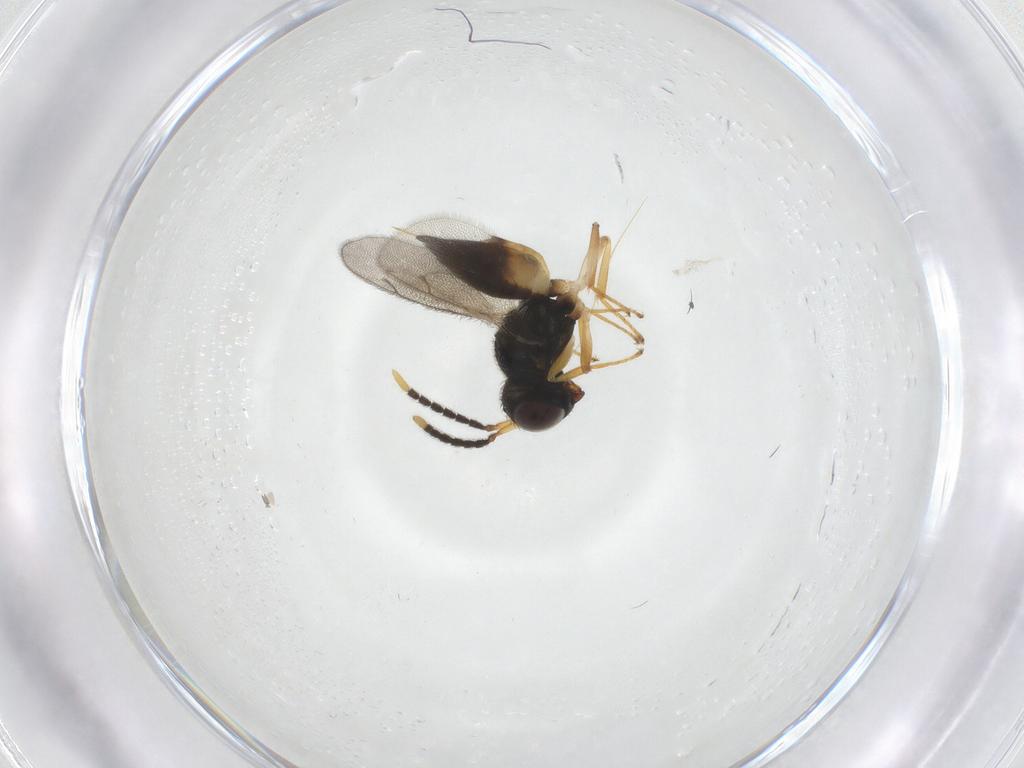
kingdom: Animalia
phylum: Arthropoda
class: Insecta
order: Hymenoptera
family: Pteromalidae
